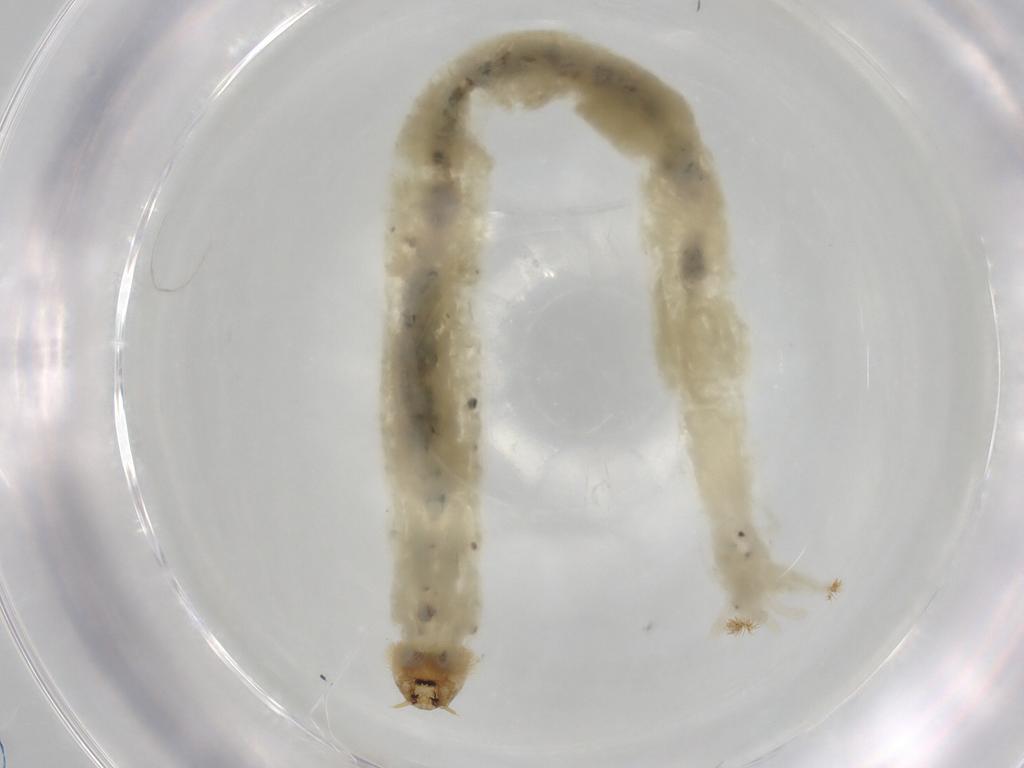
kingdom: Animalia
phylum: Arthropoda
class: Insecta
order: Diptera
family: Chironomidae
